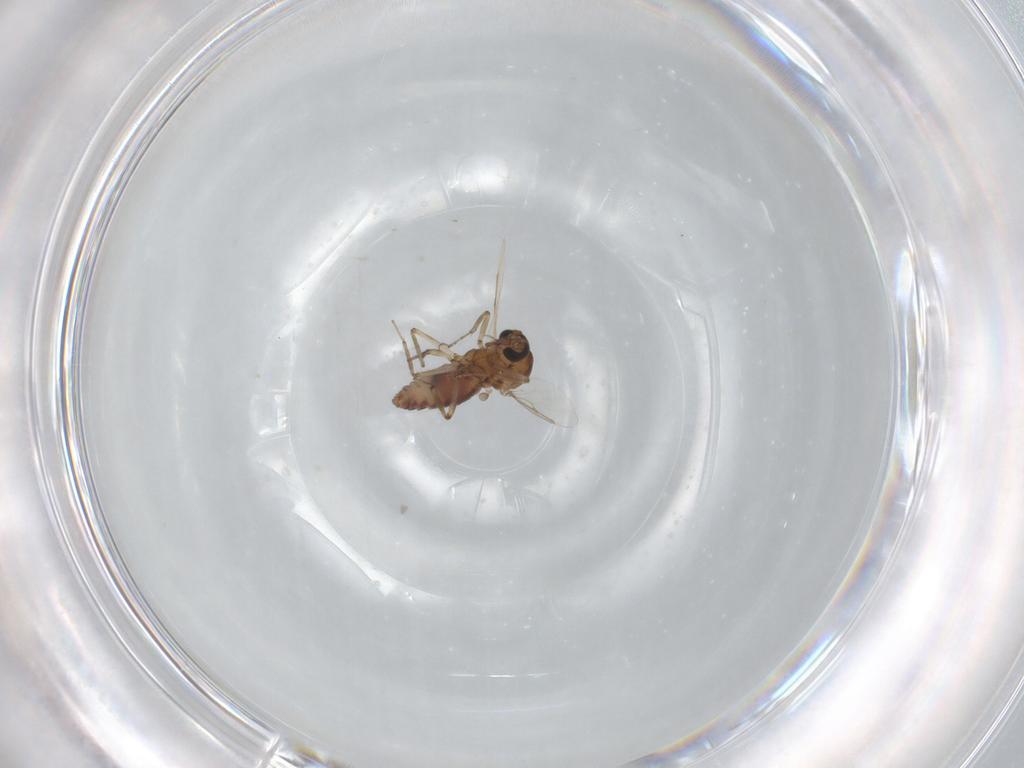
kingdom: Animalia
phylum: Arthropoda
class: Insecta
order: Diptera
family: Ceratopogonidae
